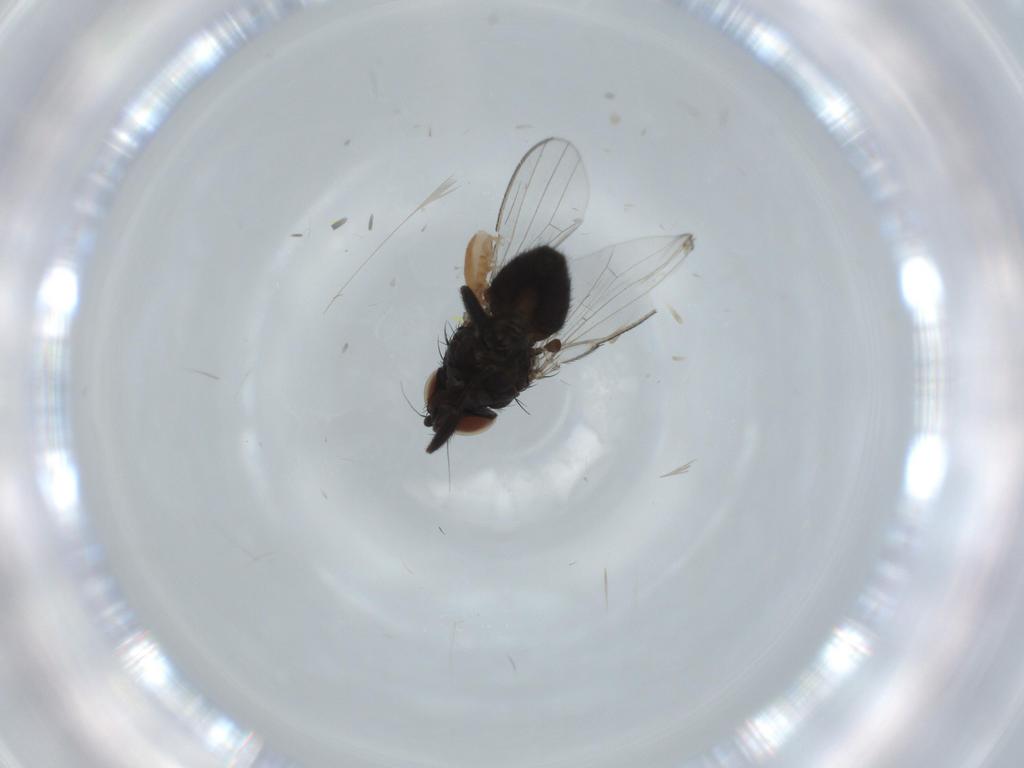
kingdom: Animalia
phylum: Arthropoda
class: Insecta
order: Diptera
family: Milichiidae
